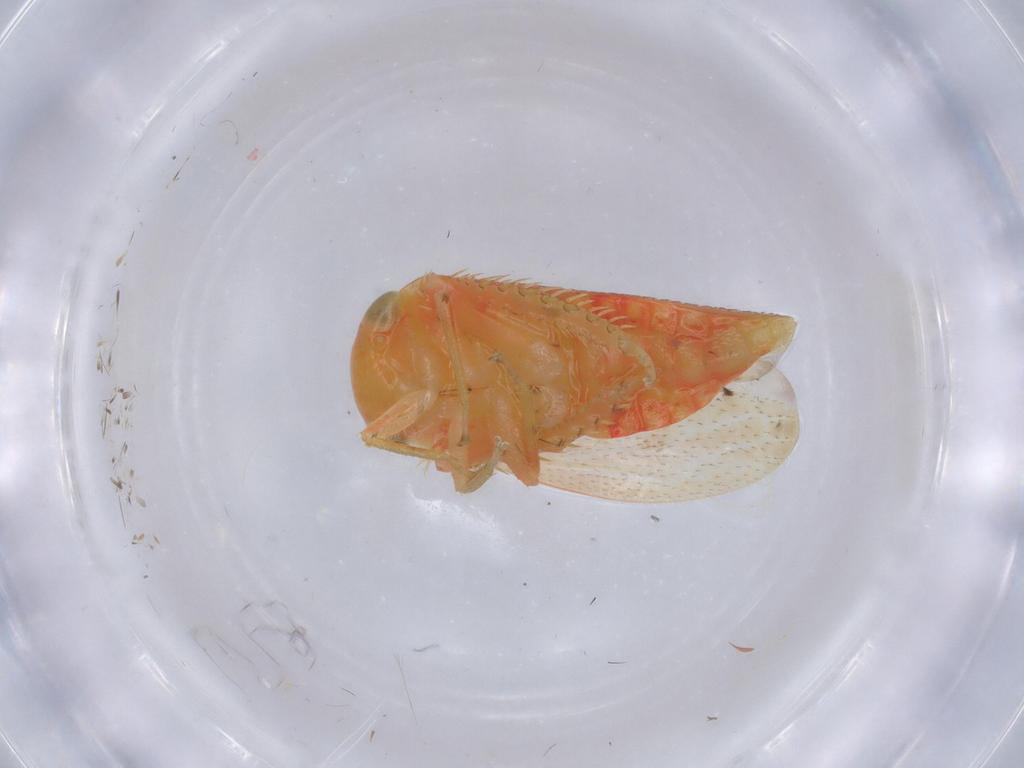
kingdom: Animalia
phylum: Arthropoda
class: Insecta
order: Hemiptera
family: Cicadellidae
